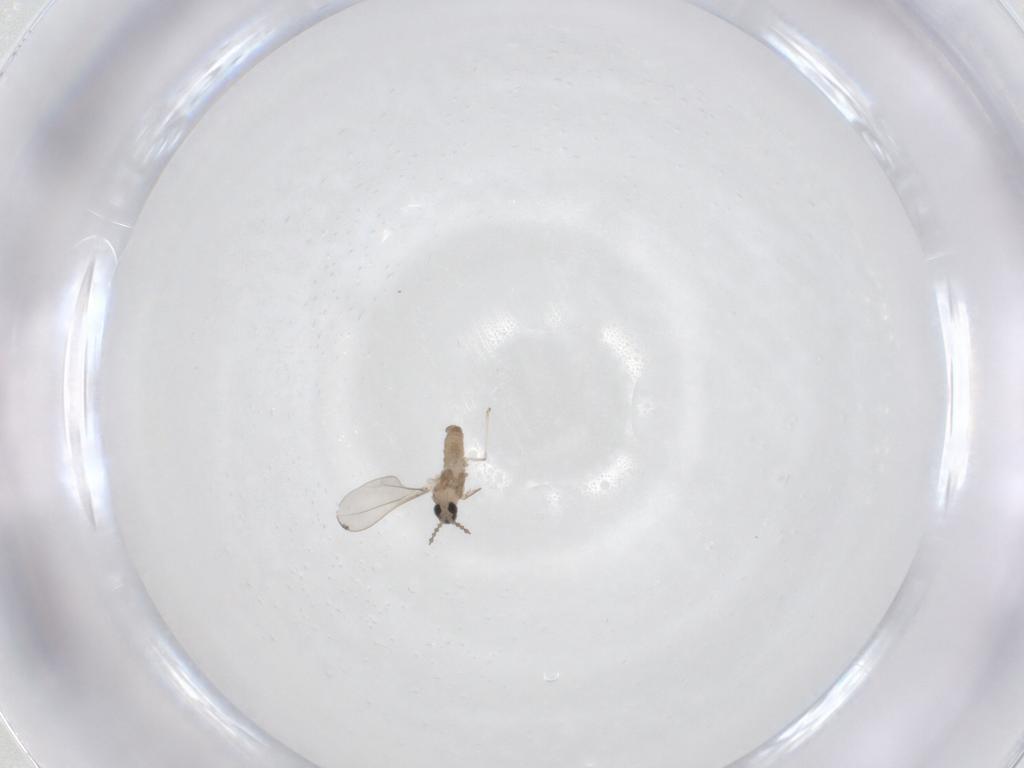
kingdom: Animalia
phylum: Arthropoda
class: Insecta
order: Diptera
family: Cecidomyiidae
